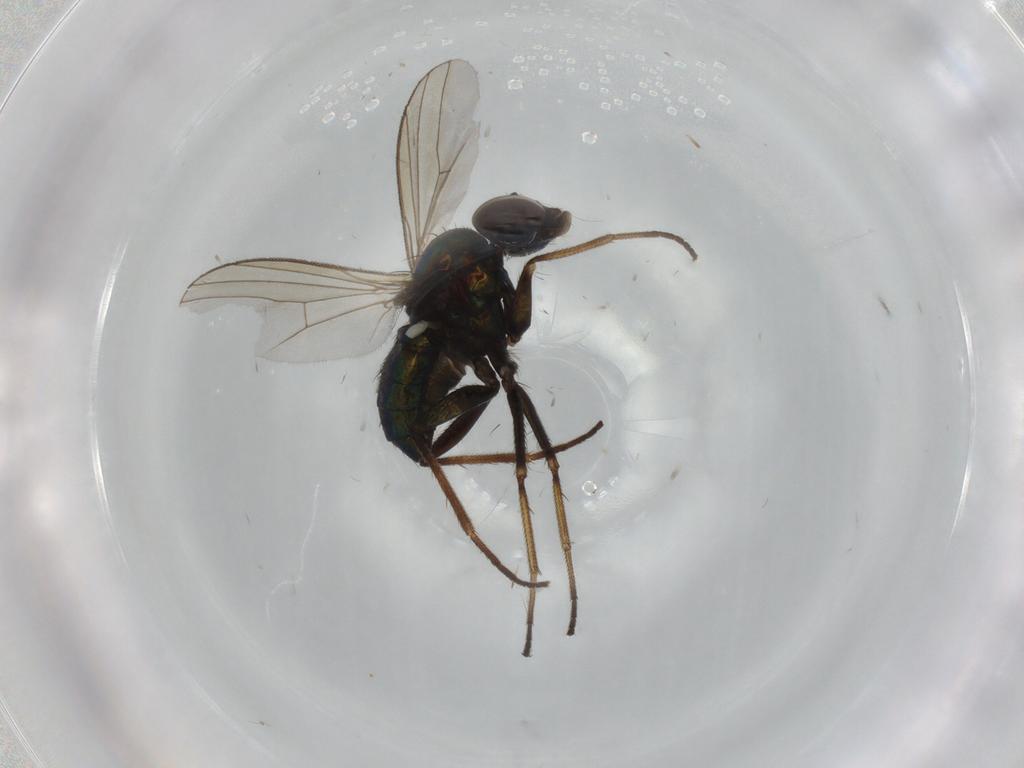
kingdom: Animalia
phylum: Arthropoda
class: Insecta
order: Diptera
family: Dolichopodidae
